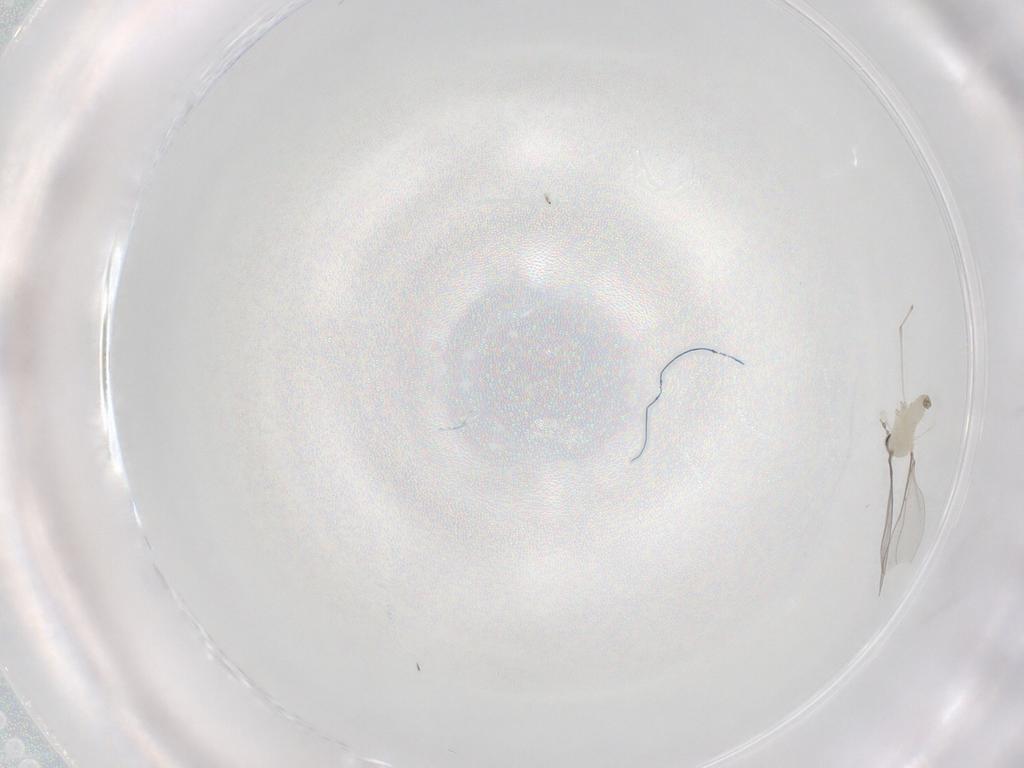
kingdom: Animalia
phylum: Arthropoda
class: Insecta
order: Diptera
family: Cecidomyiidae
